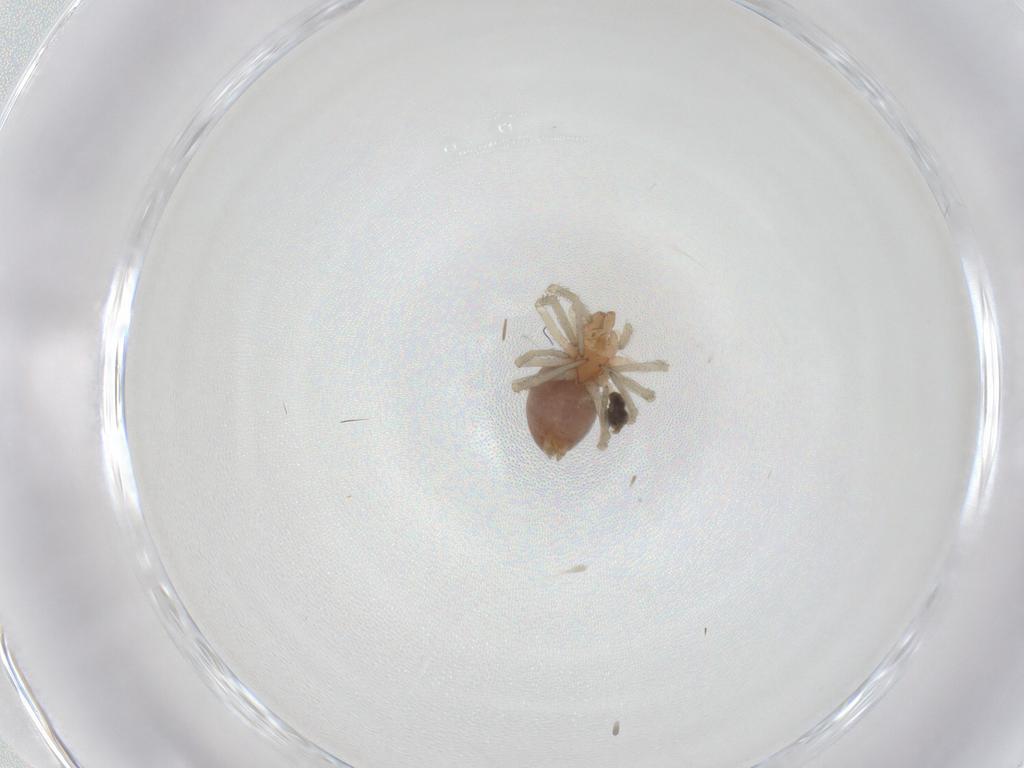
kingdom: Animalia
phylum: Arthropoda
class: Arachnida
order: Araneae
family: Dictynidae
